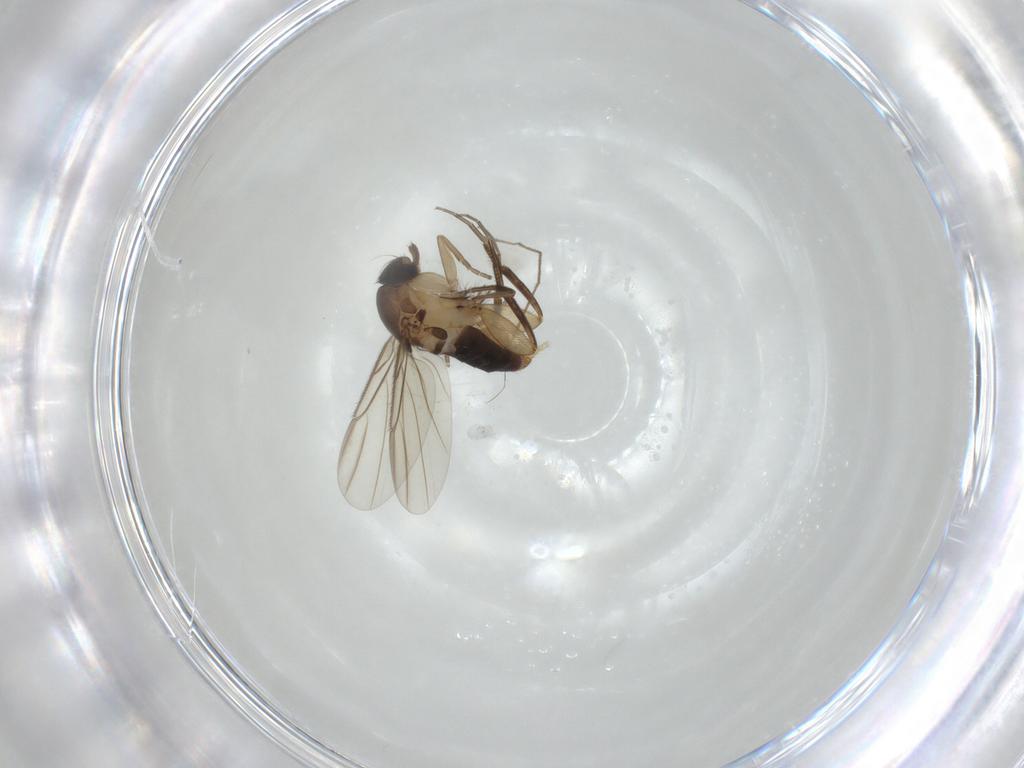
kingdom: Animalia
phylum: Arthropoda
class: Insecta
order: Diptera
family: Phoridae
